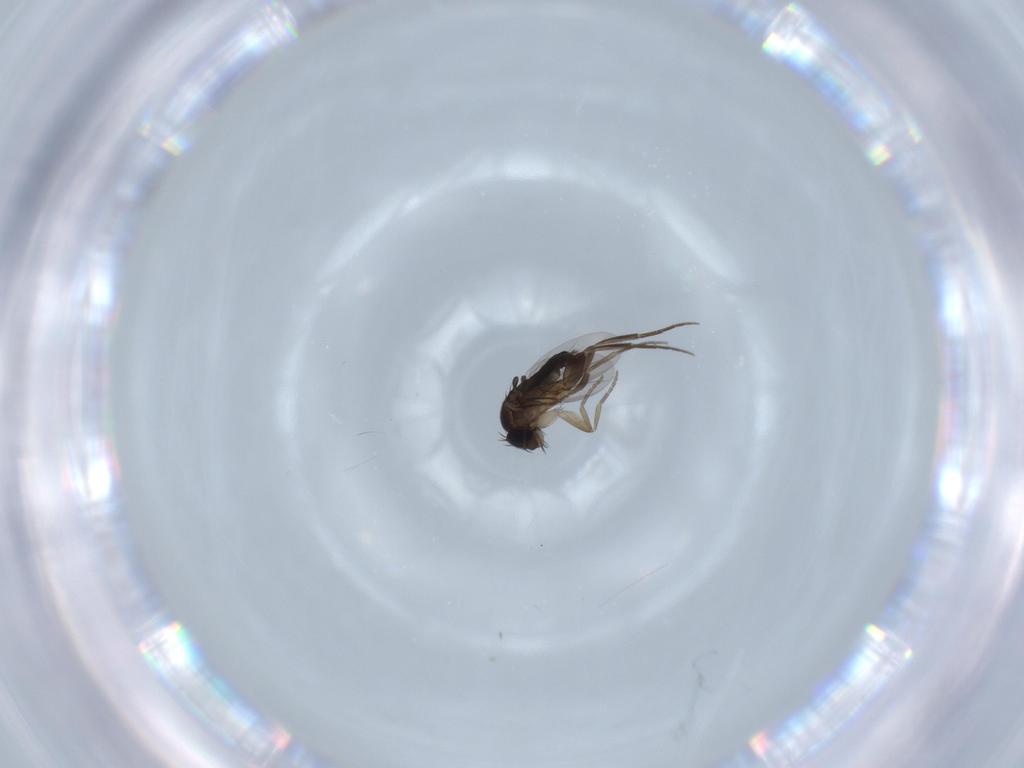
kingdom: Animalia
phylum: Arthropoda
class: Insecta
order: Diptera
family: Phoridae
